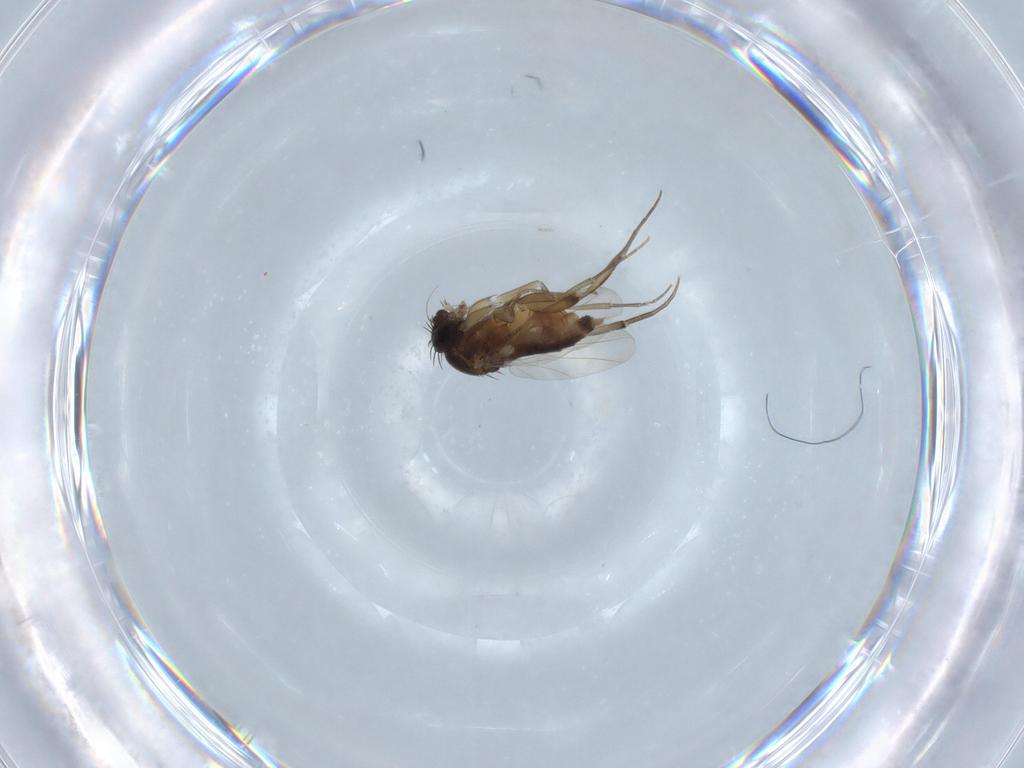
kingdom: Animalia
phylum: Arthropoda
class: Insecta
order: Diptera
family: Phoridae
